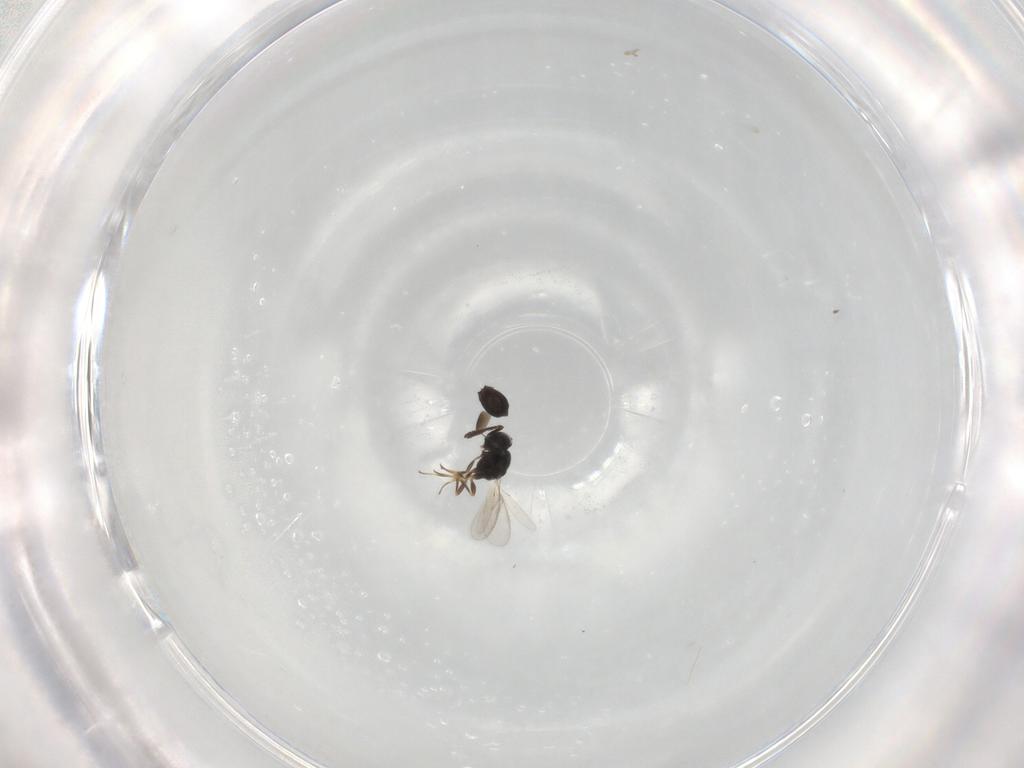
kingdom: Animalia
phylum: Arthropoda
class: Insecta
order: Hymenoptera
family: Scelionidae
